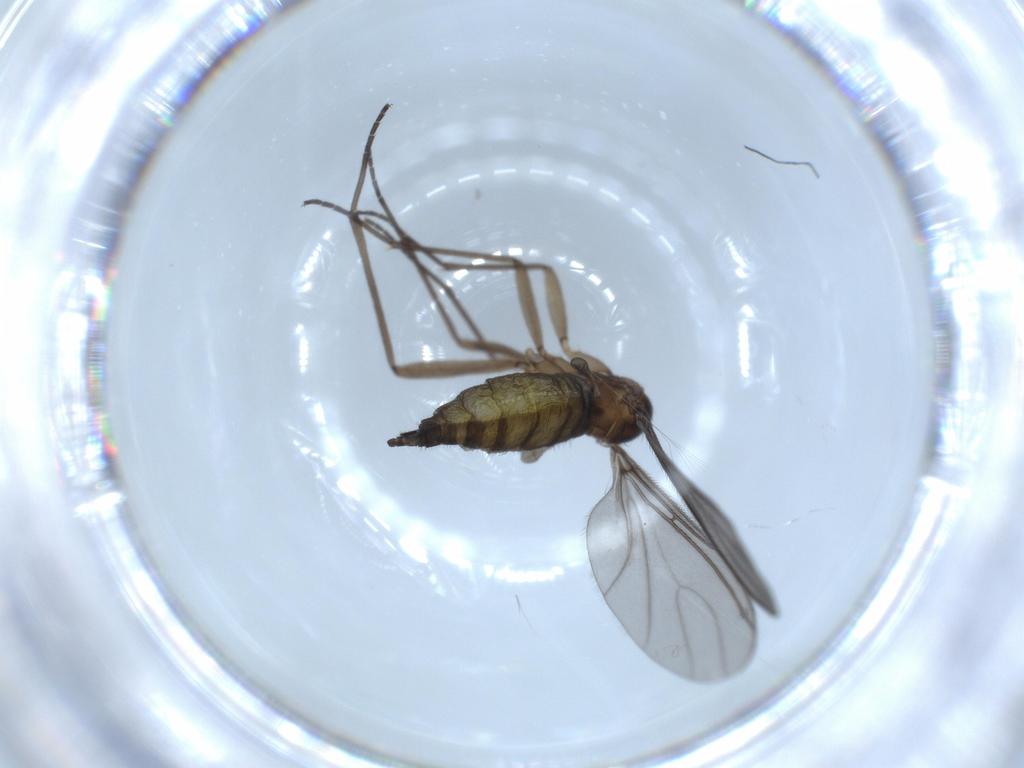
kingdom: Animalia
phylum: Arthropoda
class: Insecta
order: Diptera
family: Sciaridae
